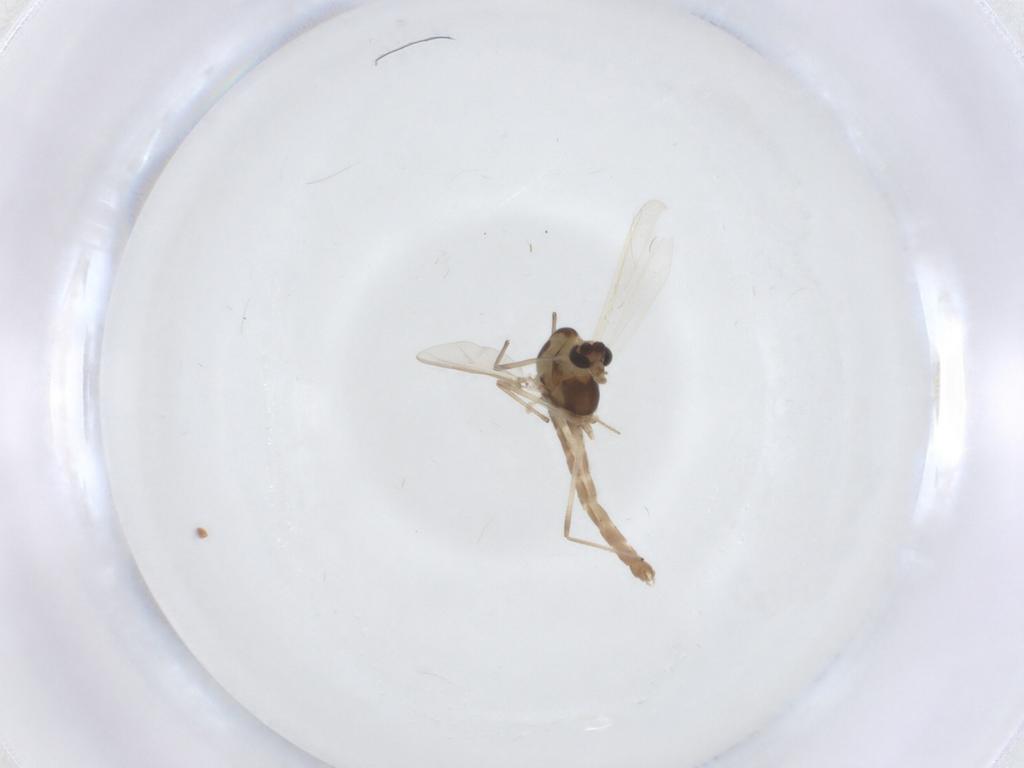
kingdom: Animalia
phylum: Arthropoda
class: Insecta
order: Diptera
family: Chironomidae
